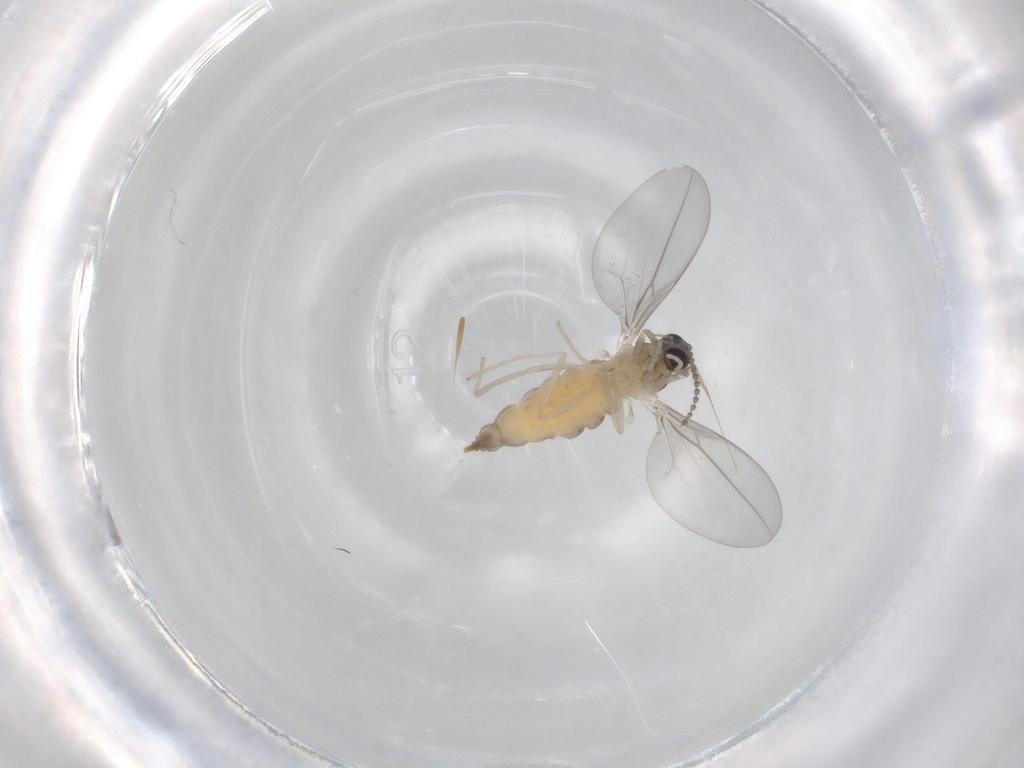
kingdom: Animalia
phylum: Arthropoda
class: Insecta
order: Diptera
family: Cecidomyiidae
